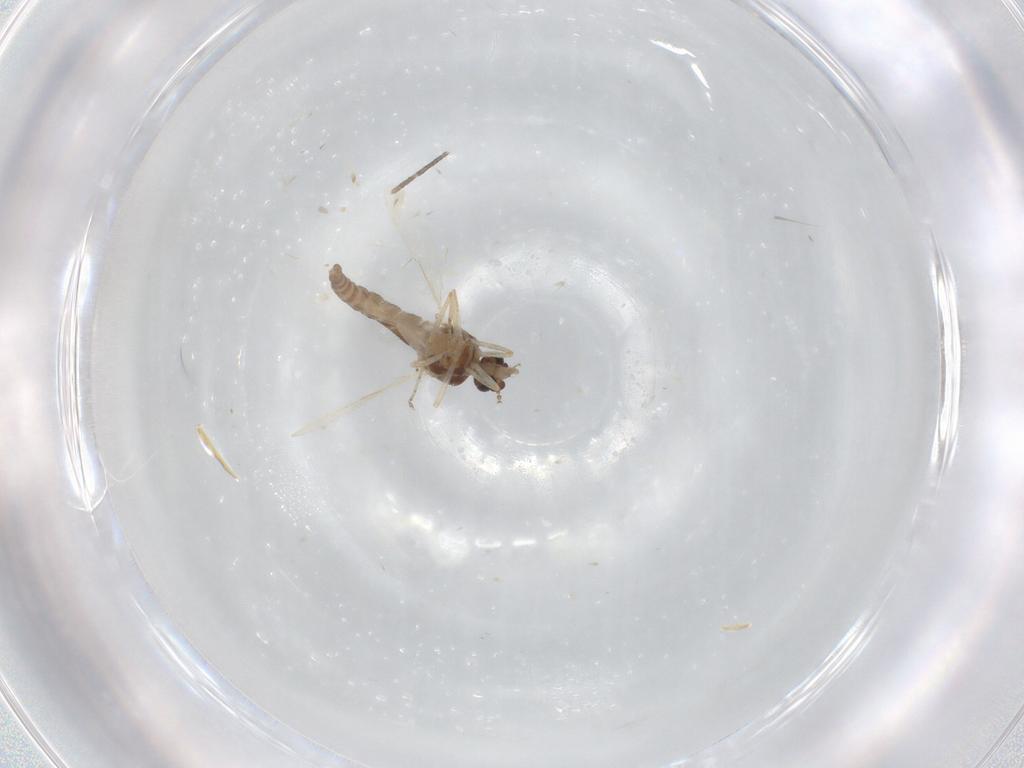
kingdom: Animalia
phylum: Arthropoda
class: Insecta
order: Diptera
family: Ceratopogonidae
